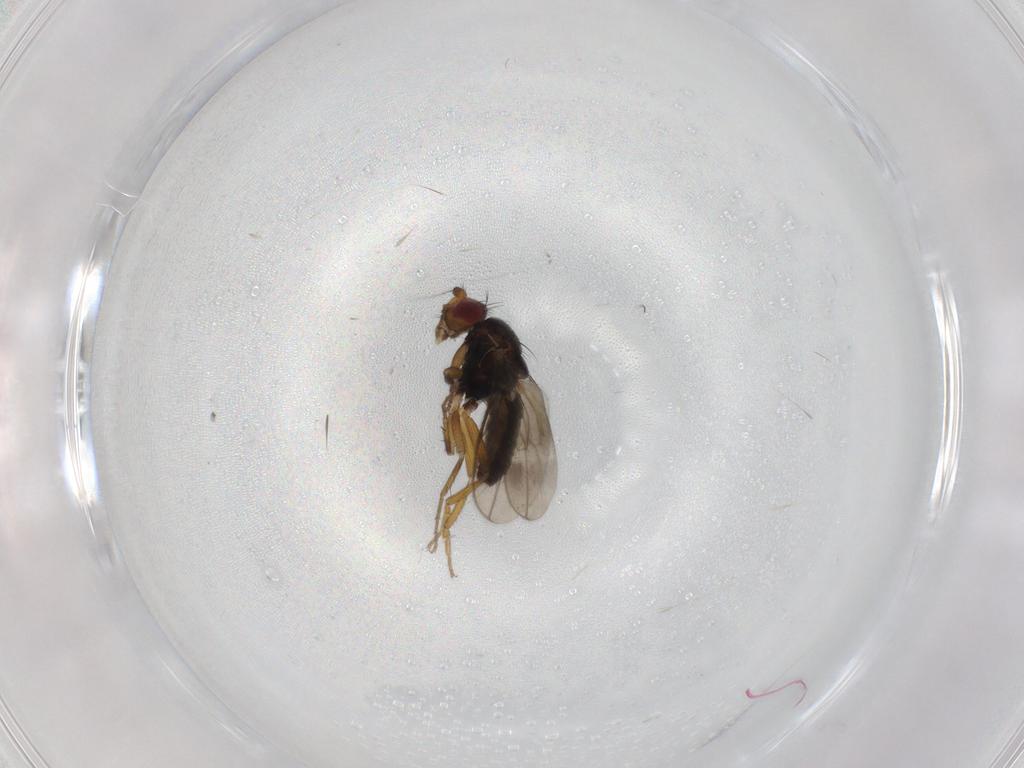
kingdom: Animalia
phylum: Arthropoda
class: Insecta
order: Diptera
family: Sphaeroceridae
